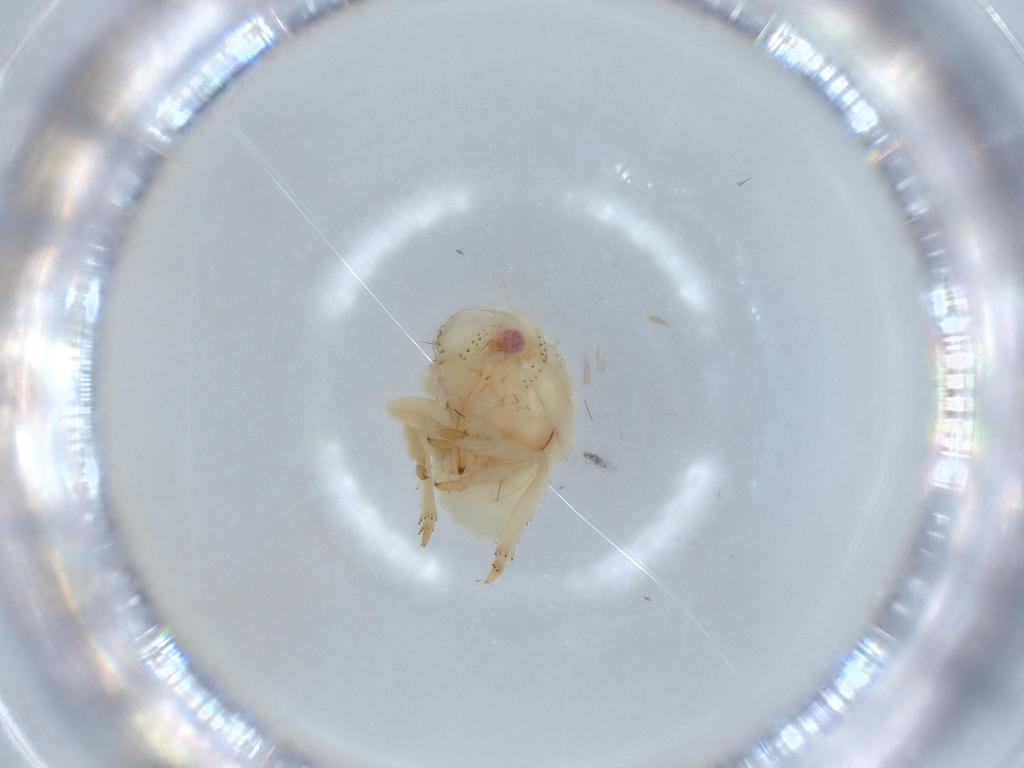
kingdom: Animalia
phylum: Arthropoda
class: Insecta
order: Hemiptera
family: Acanaloniidae
